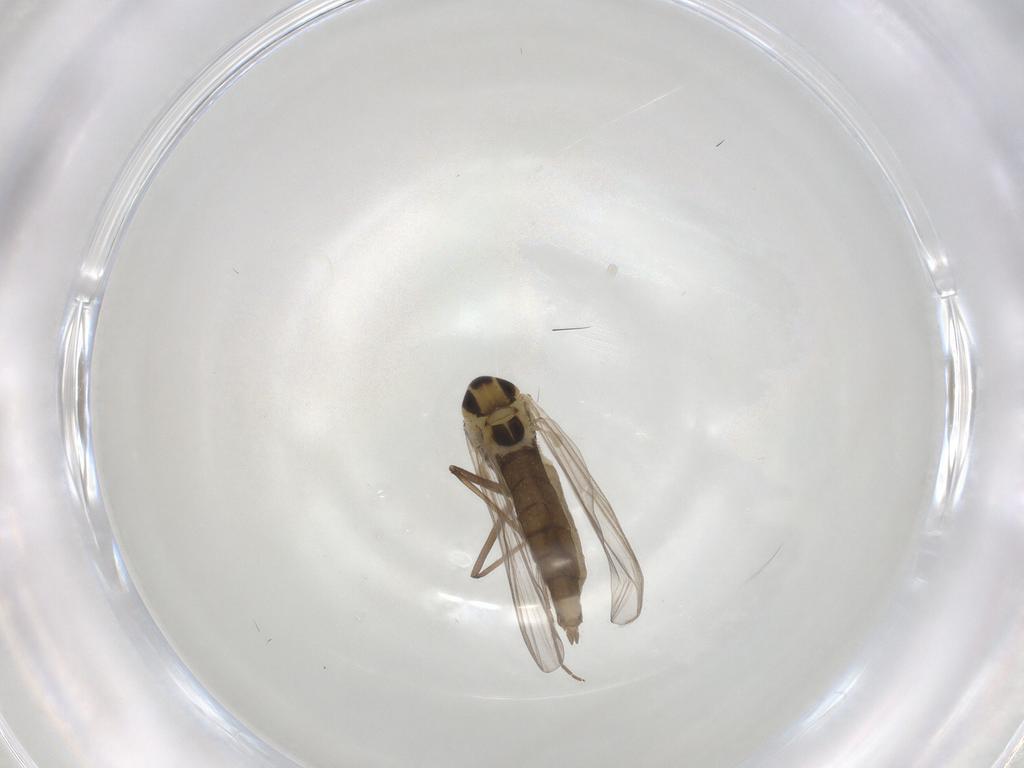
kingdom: Animalia
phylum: Arthropoda
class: Insecta
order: Diptera
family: Chironomidae
